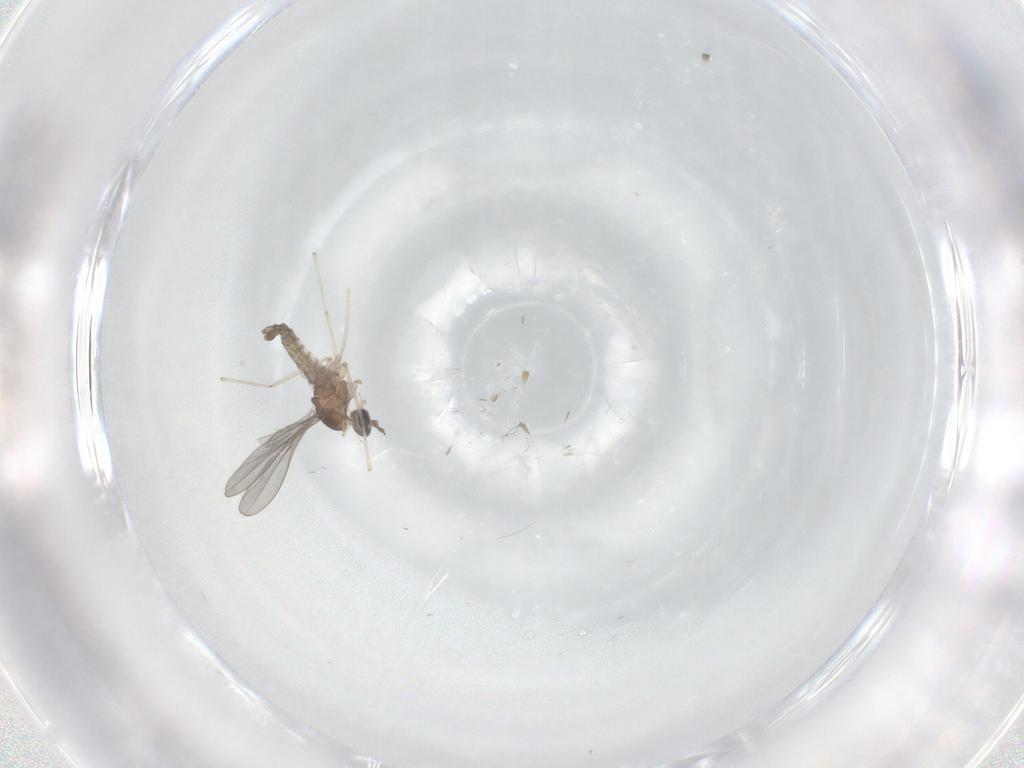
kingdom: Animalia
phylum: Arthropoda
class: Insecta
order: Diptera
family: Cecidomyiidae
